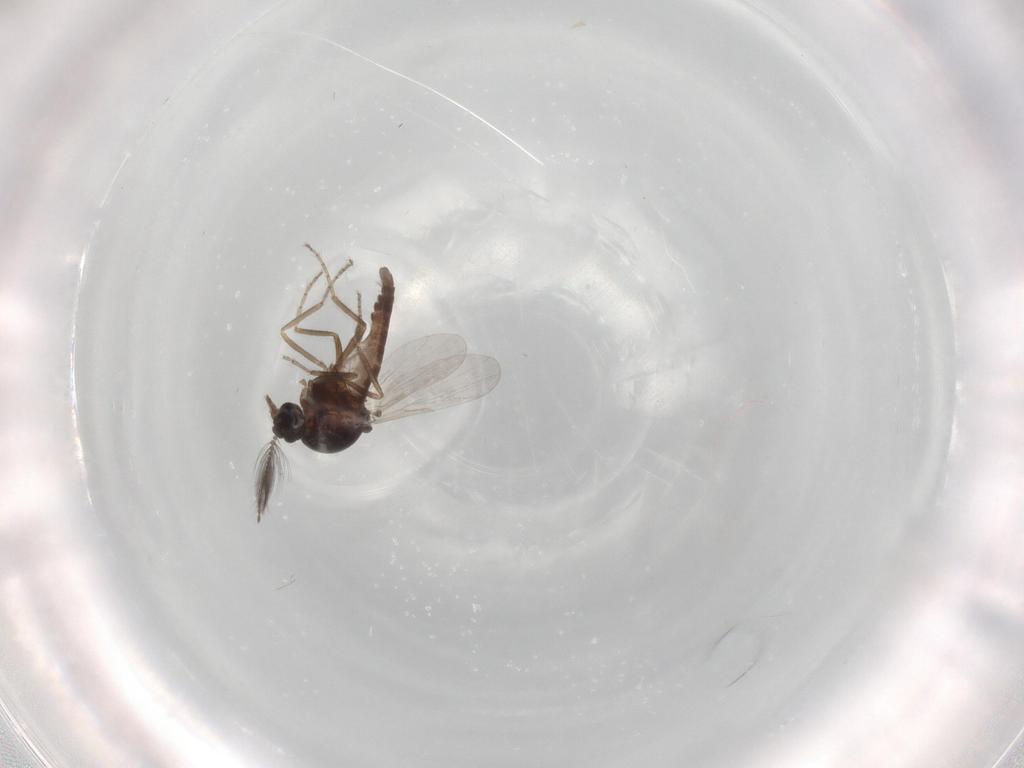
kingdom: Animalia
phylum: Arthropoda
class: Insecta
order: Diptera
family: Ceratopogonidae
